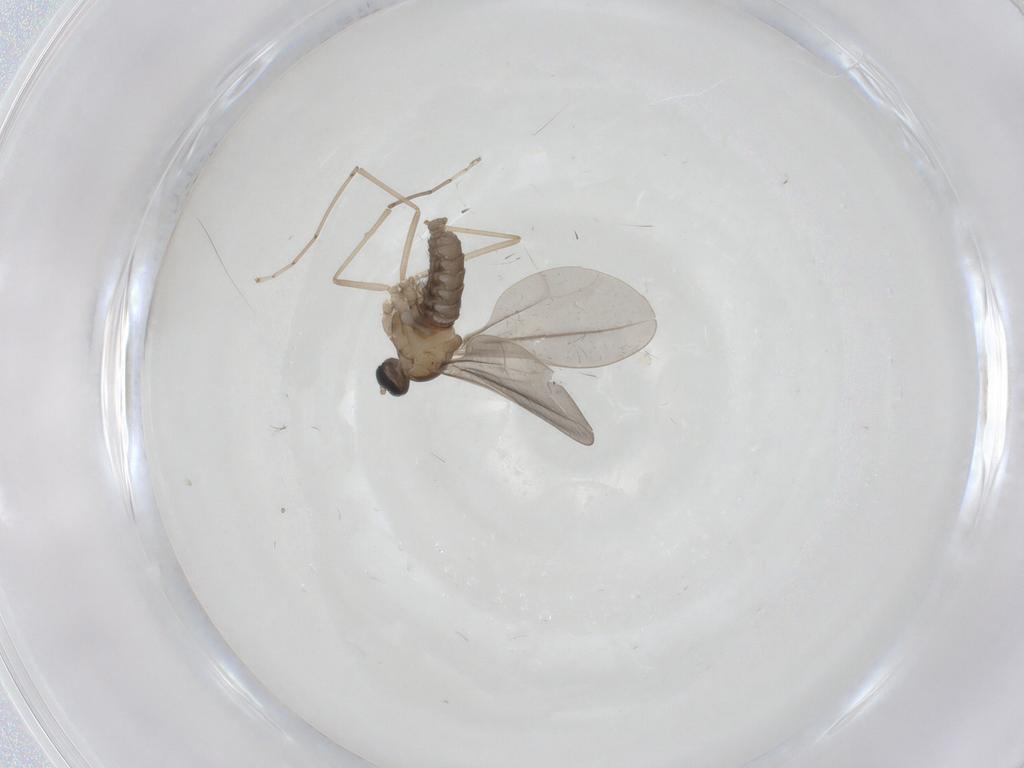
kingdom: Animalia
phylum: Arthropoda
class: Insecta
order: Diptera
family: Cecidomyiidae
